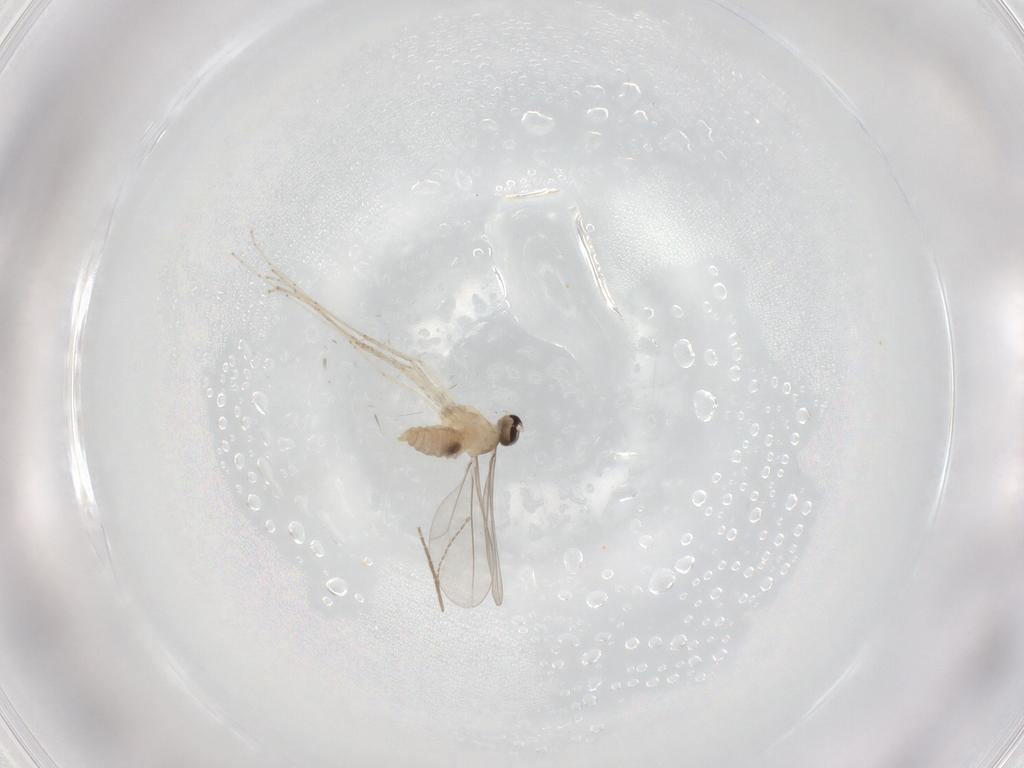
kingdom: Animalia
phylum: Arthropoda
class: Insecta
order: Diptera
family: Cecidomyiidae
